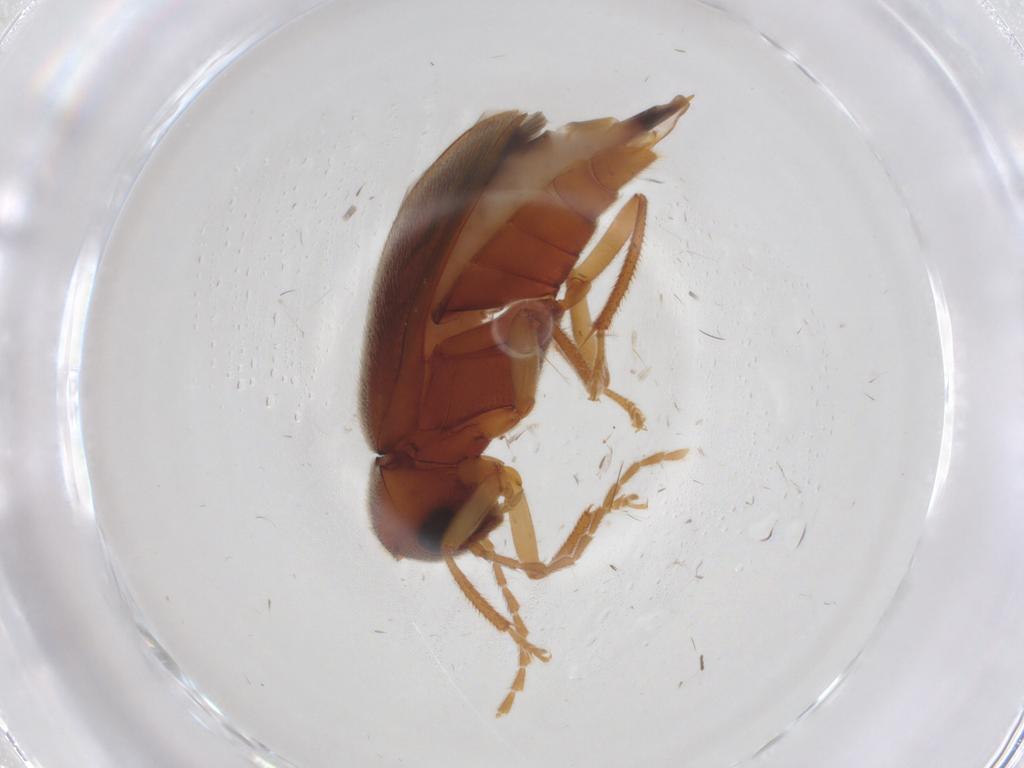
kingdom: Animalia
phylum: Arthropoda
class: Insecta
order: Coleoptera
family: Ptilodactylidae
